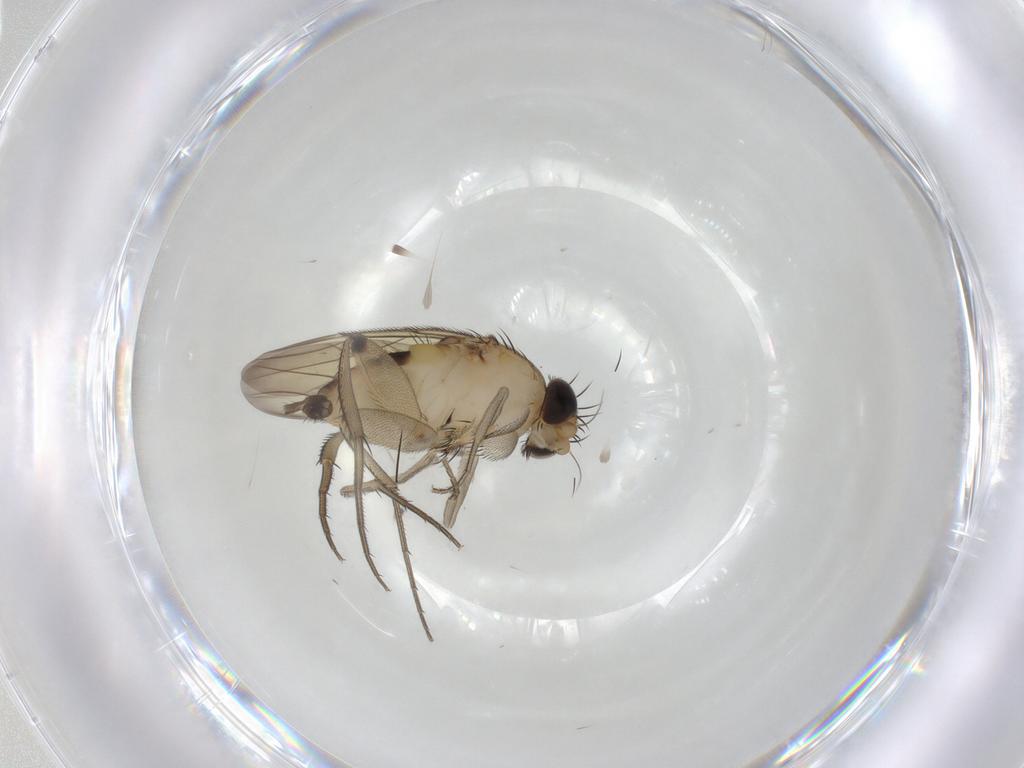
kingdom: Animalia
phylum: Arthropoda
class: Insecta
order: Diptera
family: Phoridae
